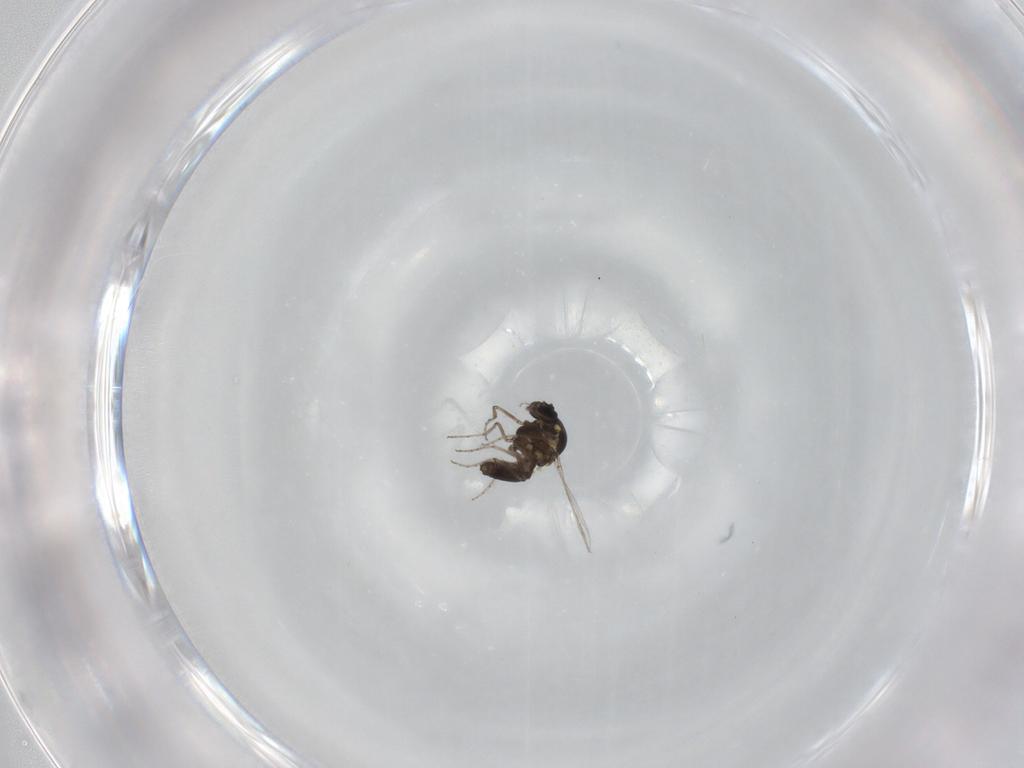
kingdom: Animalia
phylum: Arthropoda
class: Insecta
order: Diptera
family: Ceratopogonidae
